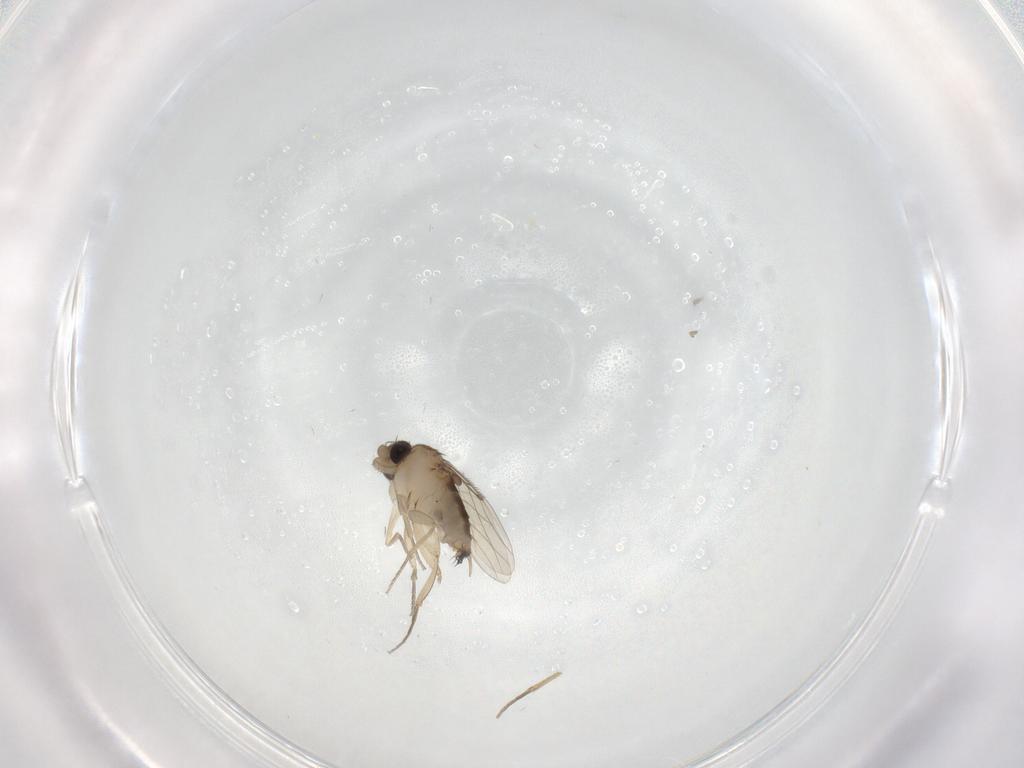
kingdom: Animalia
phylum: Arthropoda
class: Insecta
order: Diptera
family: Phoridae
